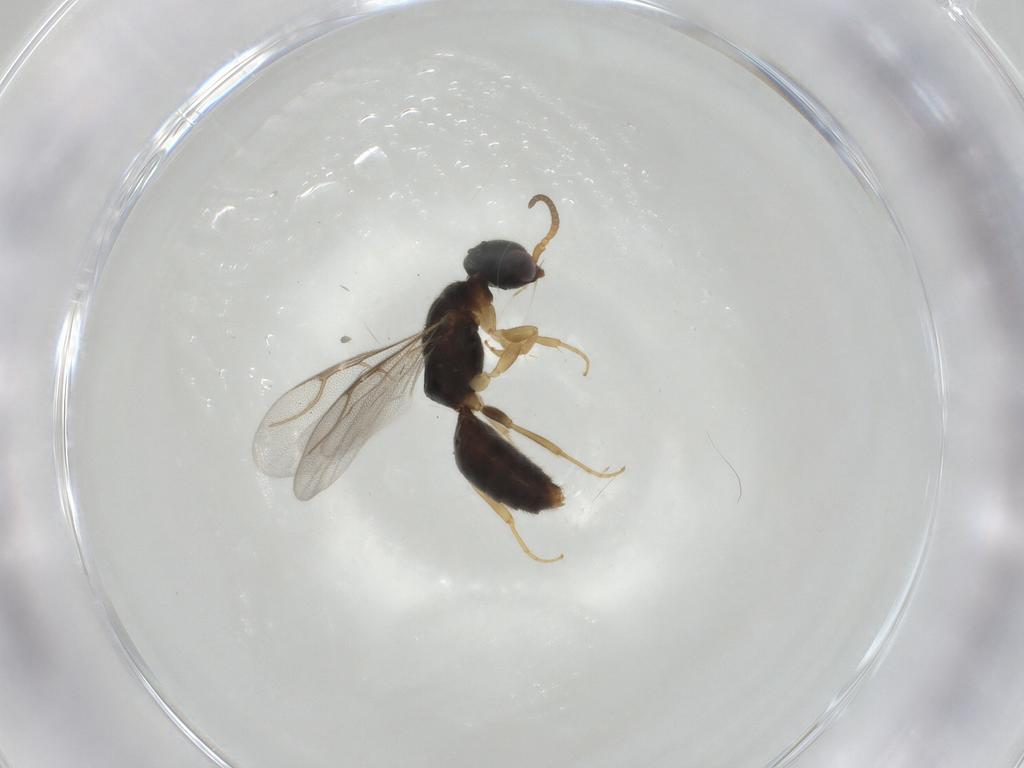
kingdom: Animalia
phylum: Arthropoda
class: Insecta
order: Hymenoptera
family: Bethylidae
